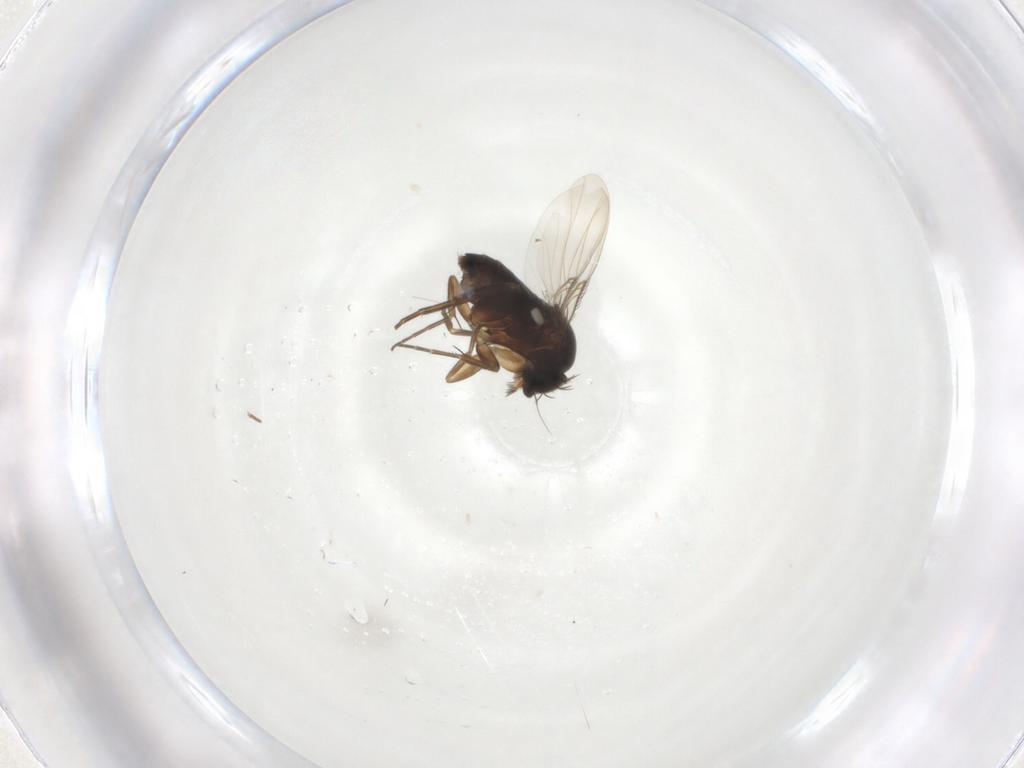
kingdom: Animalia
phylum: Arthropoda
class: Insecta
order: Diptera
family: Phoridae
